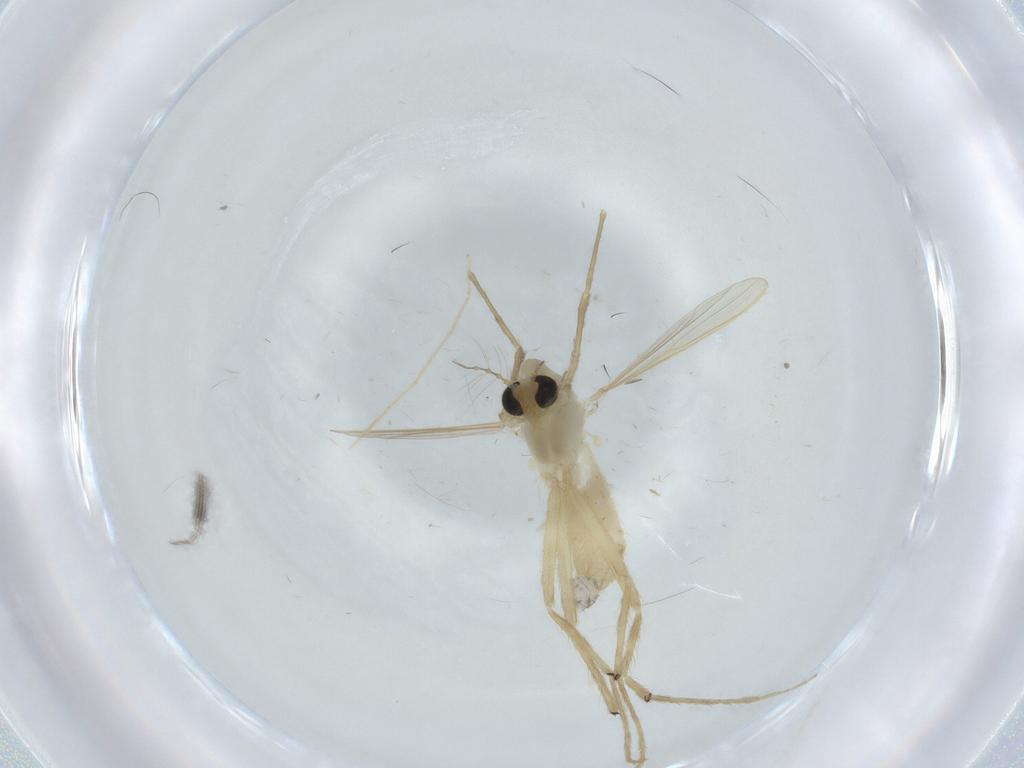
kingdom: Animalia
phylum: Arthropoda
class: Insecta
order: Diptera
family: Chironomidae
